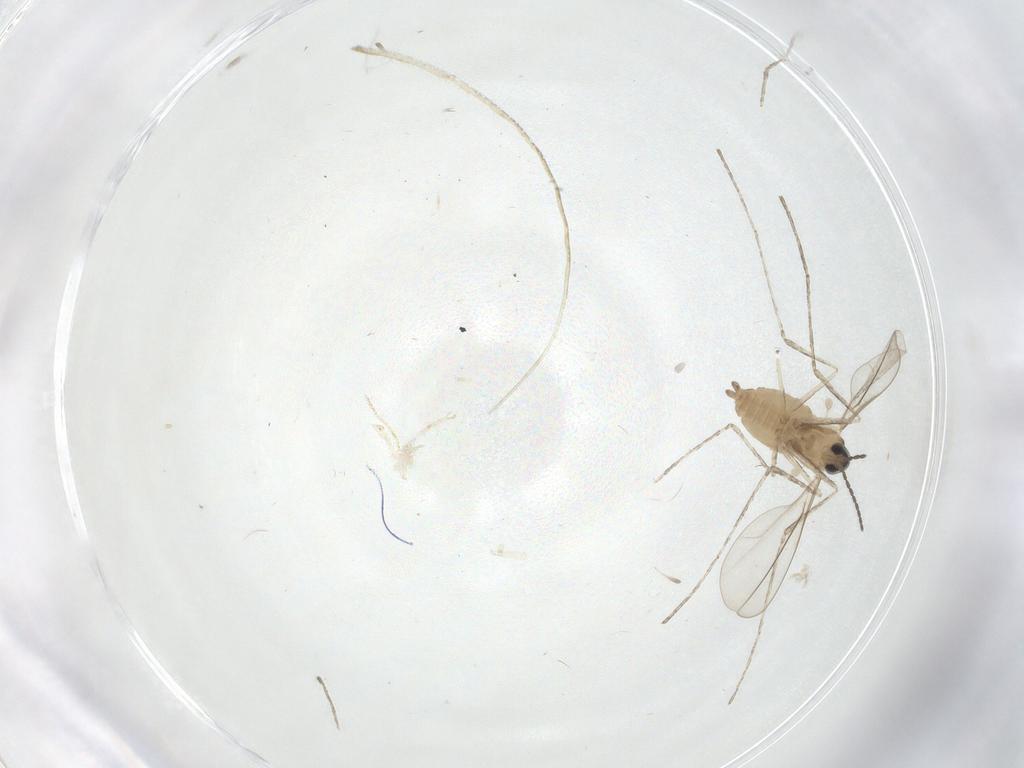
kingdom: Animalia
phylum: Arthropoda
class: Insecta
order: Diptera
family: Cecidomyiidae
